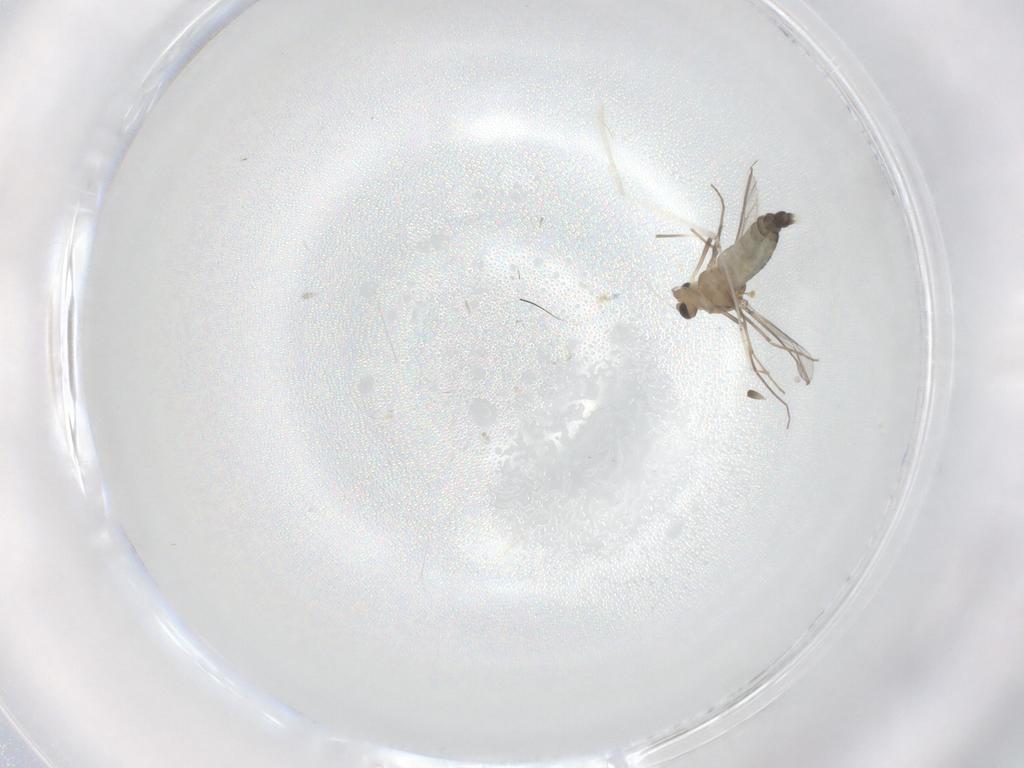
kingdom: Animalia
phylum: Arthropoda
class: Insecta
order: Diptera
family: Chironomidae
